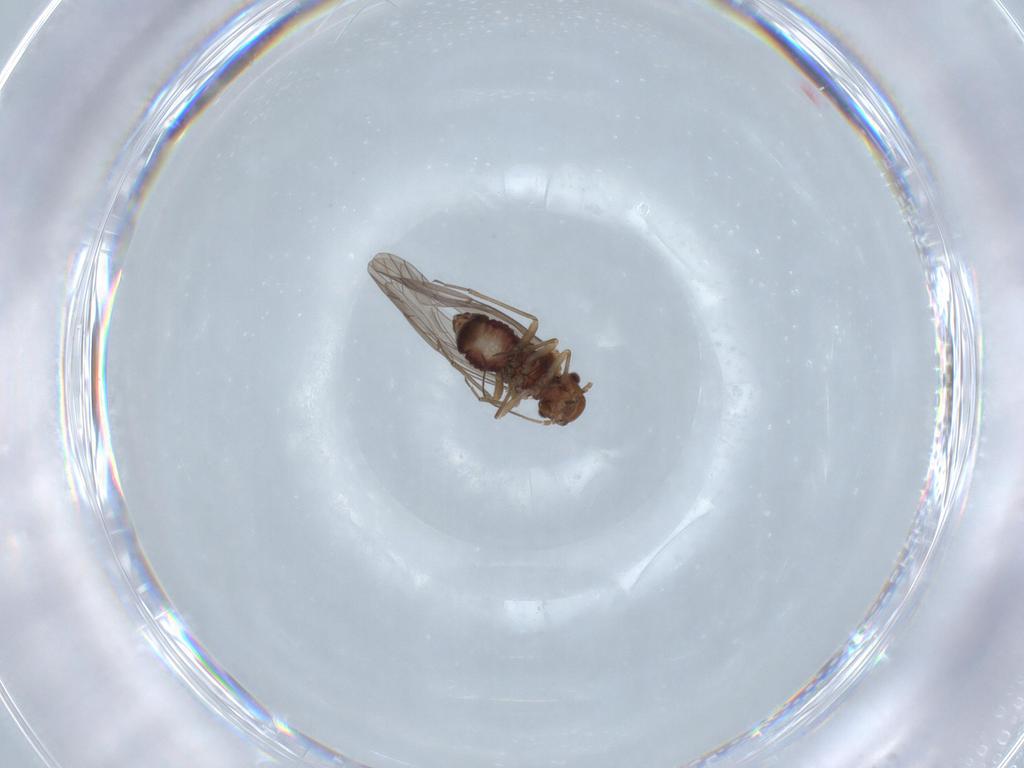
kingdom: Animalia
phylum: Arthropoda
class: Insecta
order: Psocodea
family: Lachesillidae
